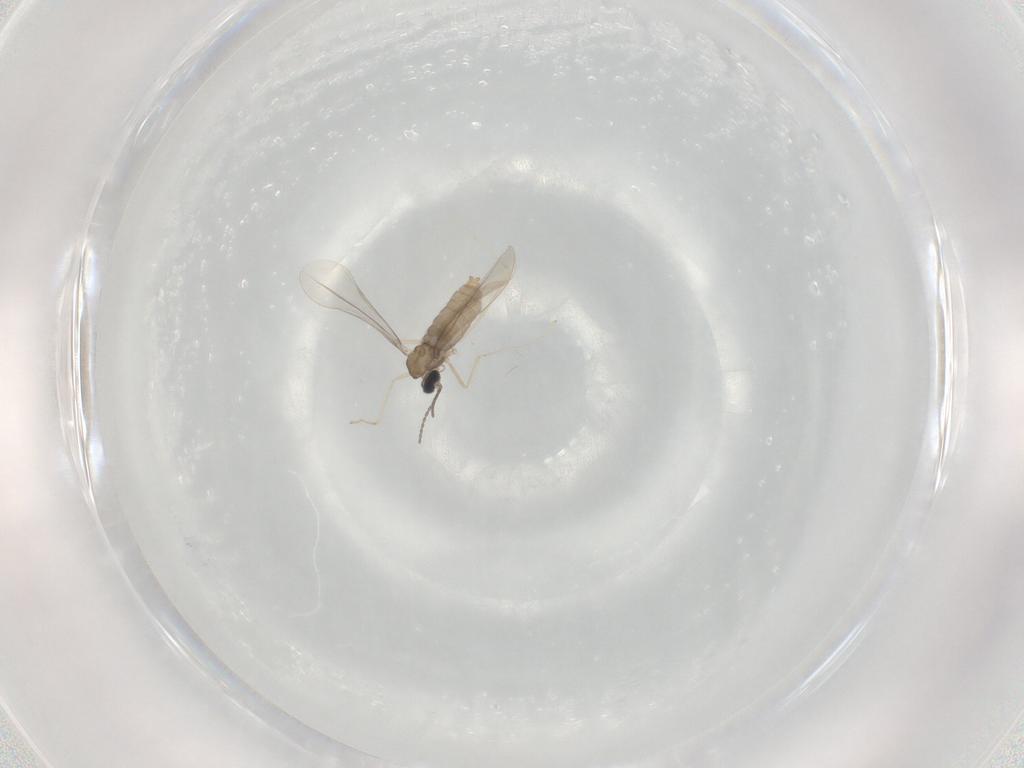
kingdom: Animalia
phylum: Arthropoda
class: Insecta
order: Diptera
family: Cecidomyiidae
